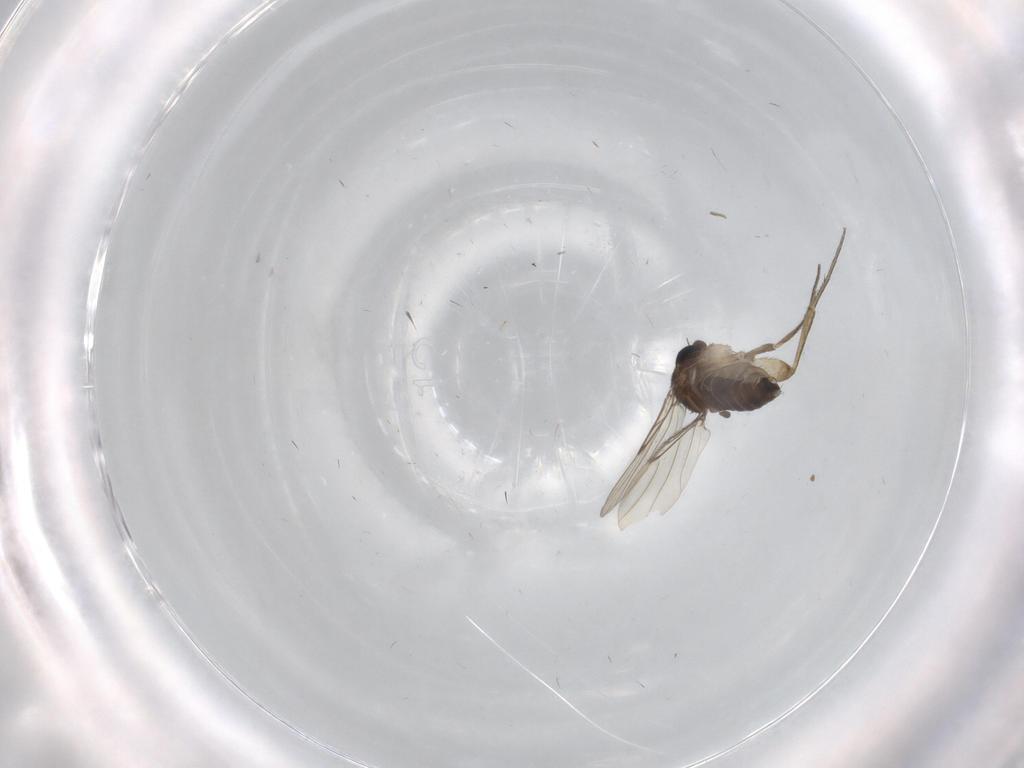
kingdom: Animalia
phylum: Arthropoda
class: Insecta
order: Diptera
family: Phoridae
